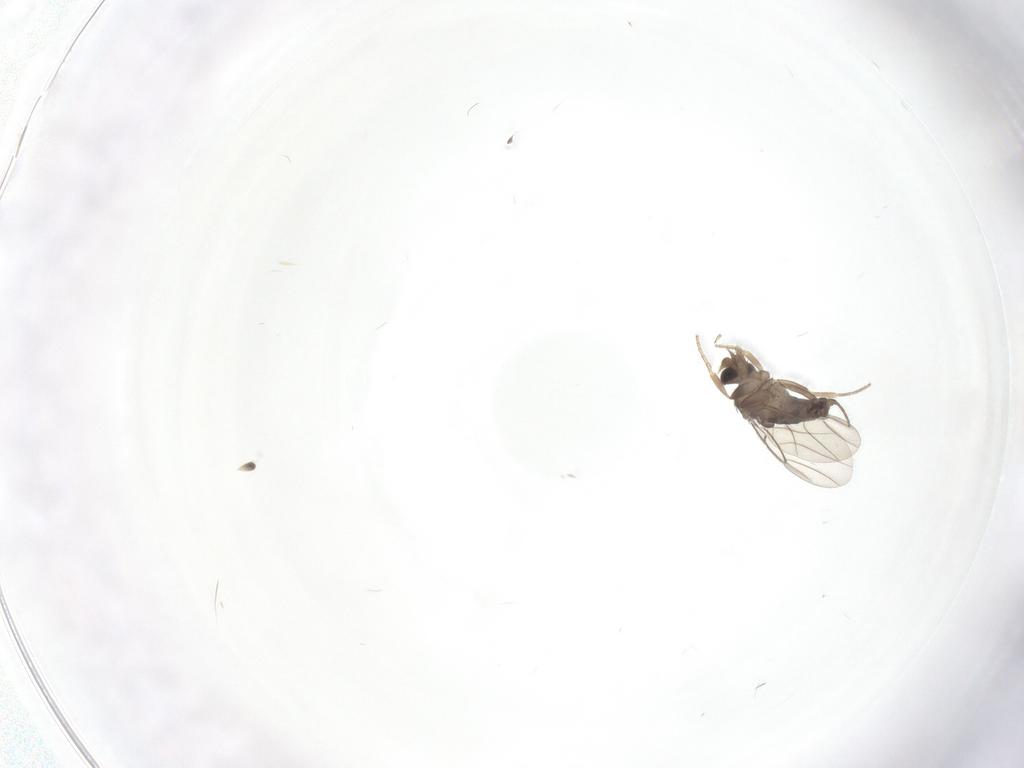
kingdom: Animalia
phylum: Arthropoda
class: Insecta
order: Diptera
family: Phoridae
